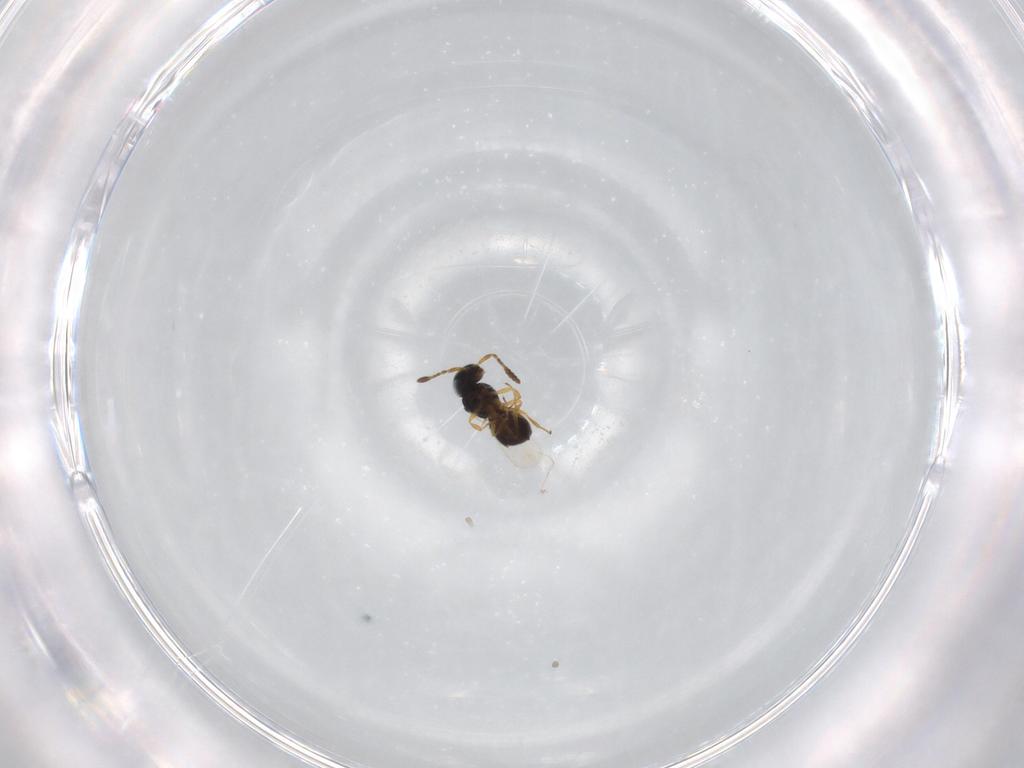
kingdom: Animalia
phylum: Arthropoda
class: Insecta
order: Hymenoptera
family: Scelionidae
